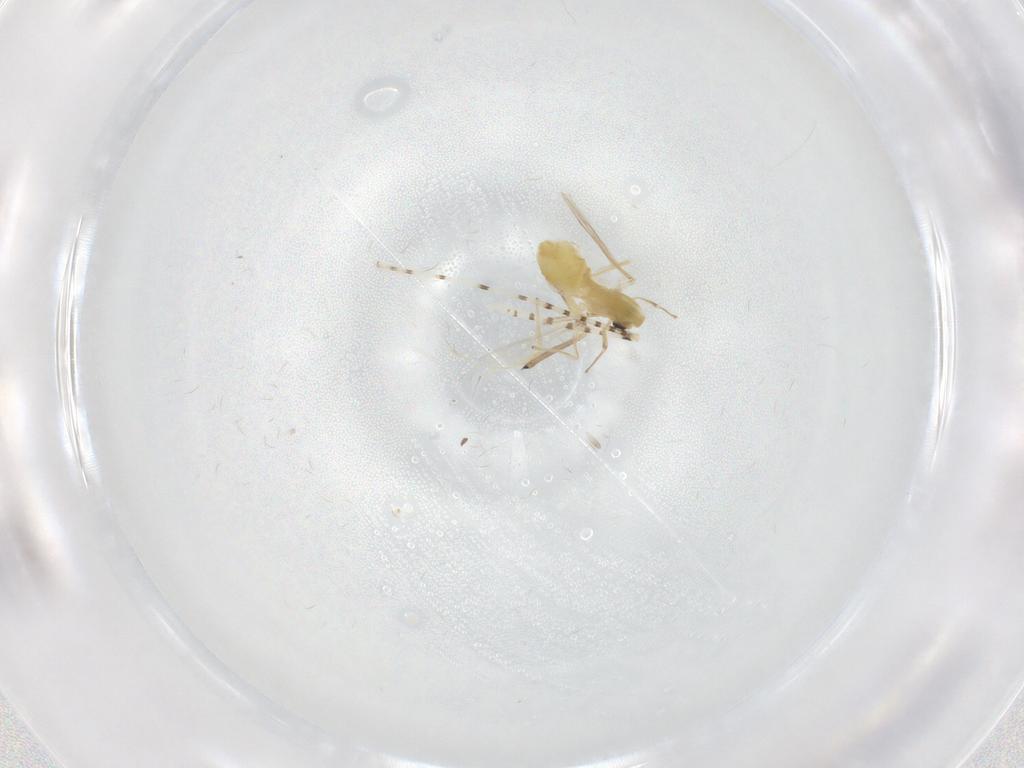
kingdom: Animalia
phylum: Arthropoda
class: Insecta
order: Diptera
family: Chironomidae
